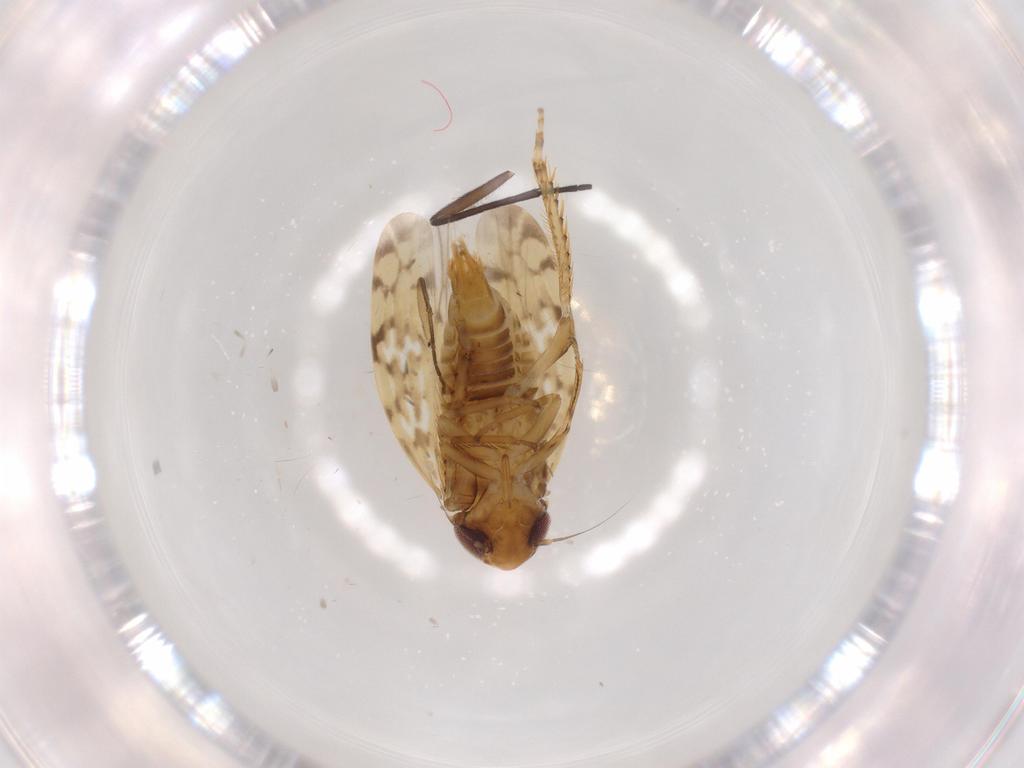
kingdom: Animalia
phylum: Arthropoda
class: Insecta
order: Hemiptera
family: Cicadellidae
